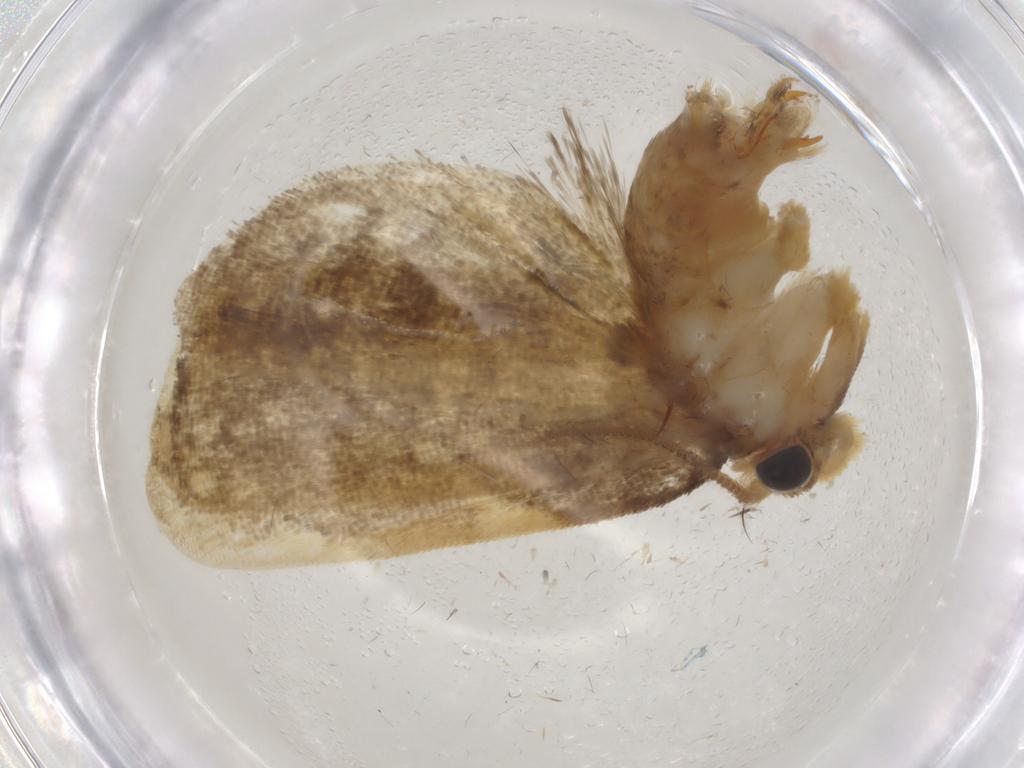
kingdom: Animalia
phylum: Arthropoda
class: Insecta
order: Lepidoptera
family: Psychidae
